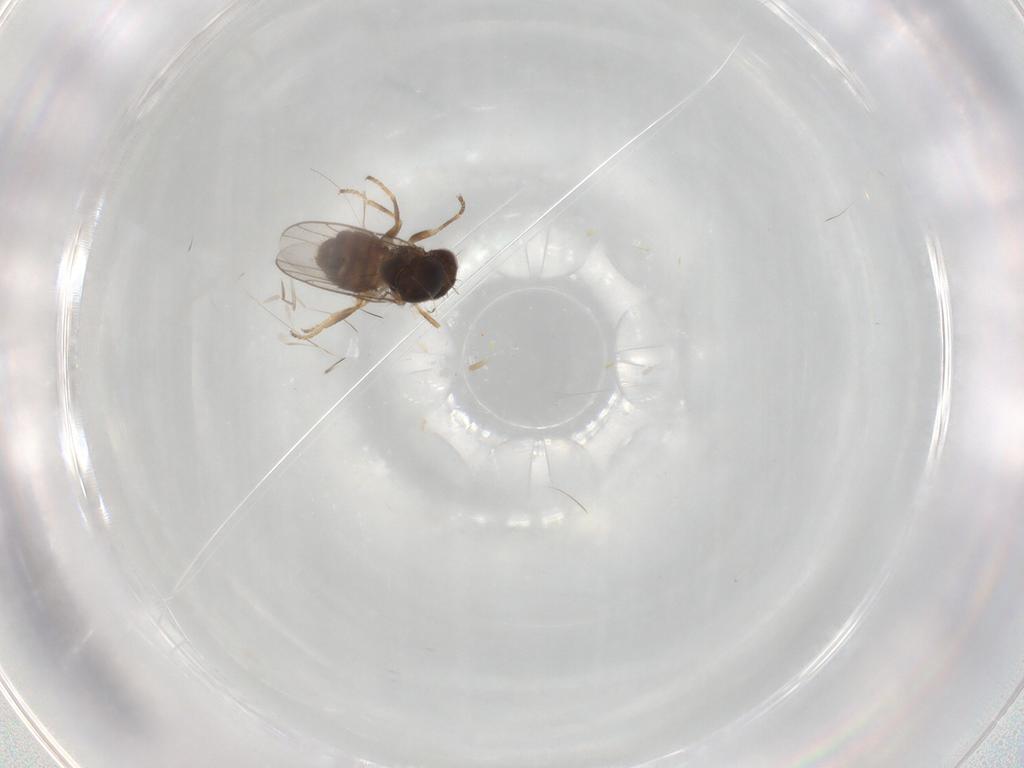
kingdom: Animalia
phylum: Arthropoda
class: Insecta
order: Diptera
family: Chloropidae
